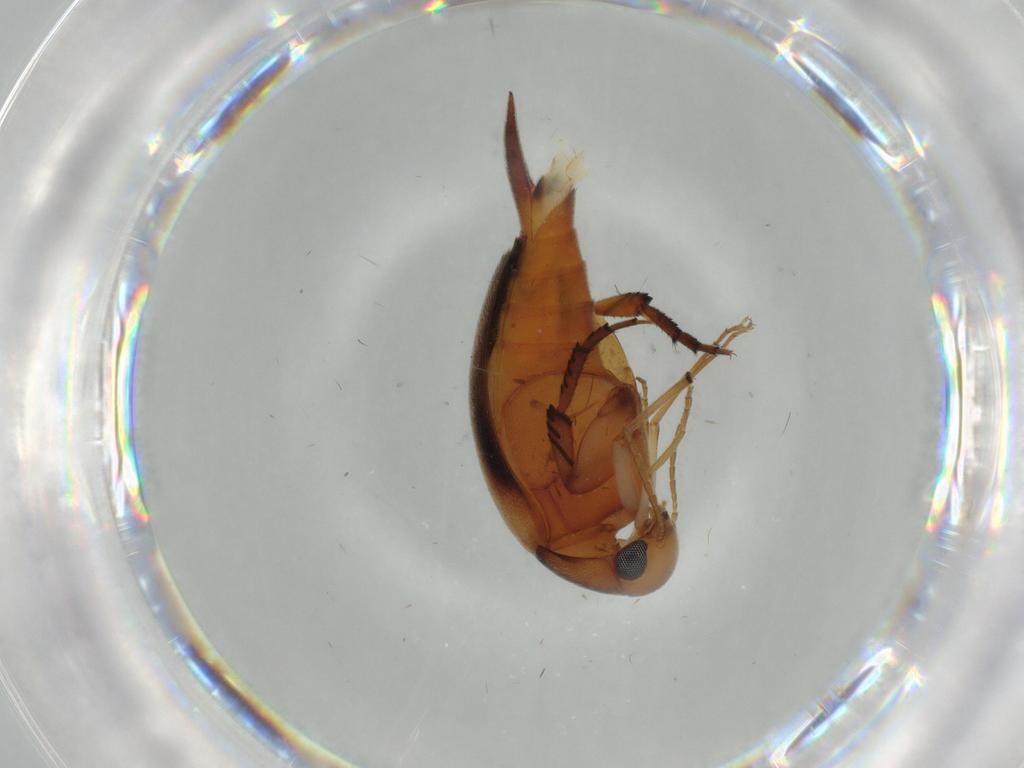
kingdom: Animalia
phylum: Arthropoda
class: Insecta
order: Coleoptera
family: Mordellidae
